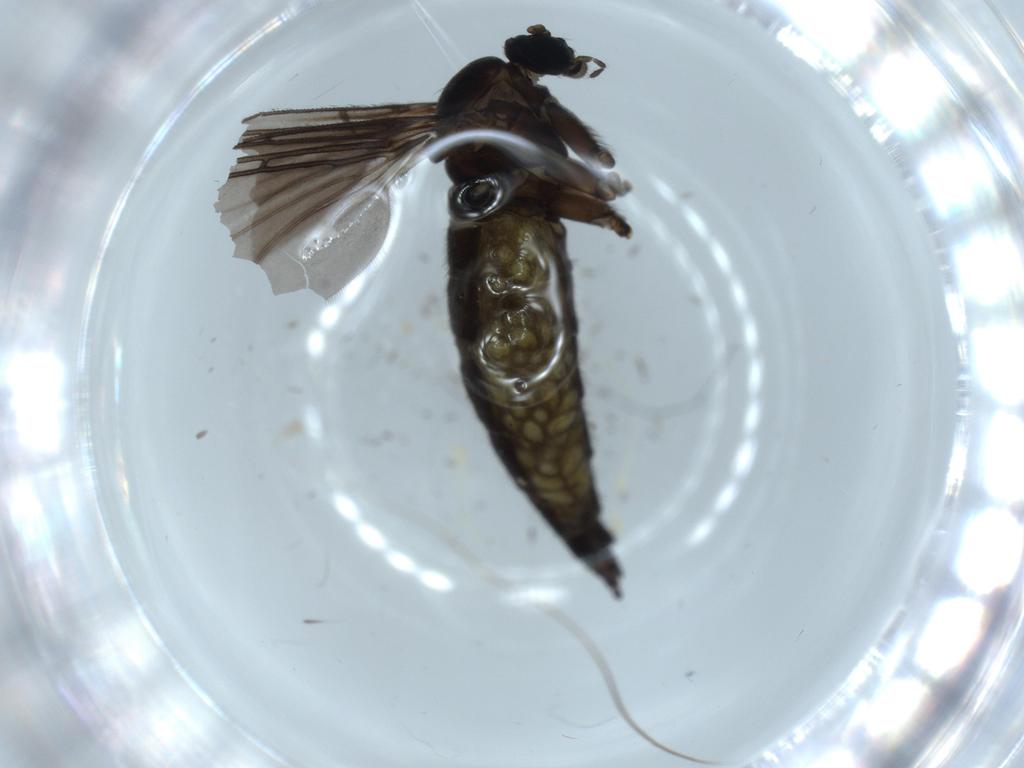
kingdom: Animalia
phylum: Arthropoda
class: Insecta
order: Diptera
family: Sciaridae
